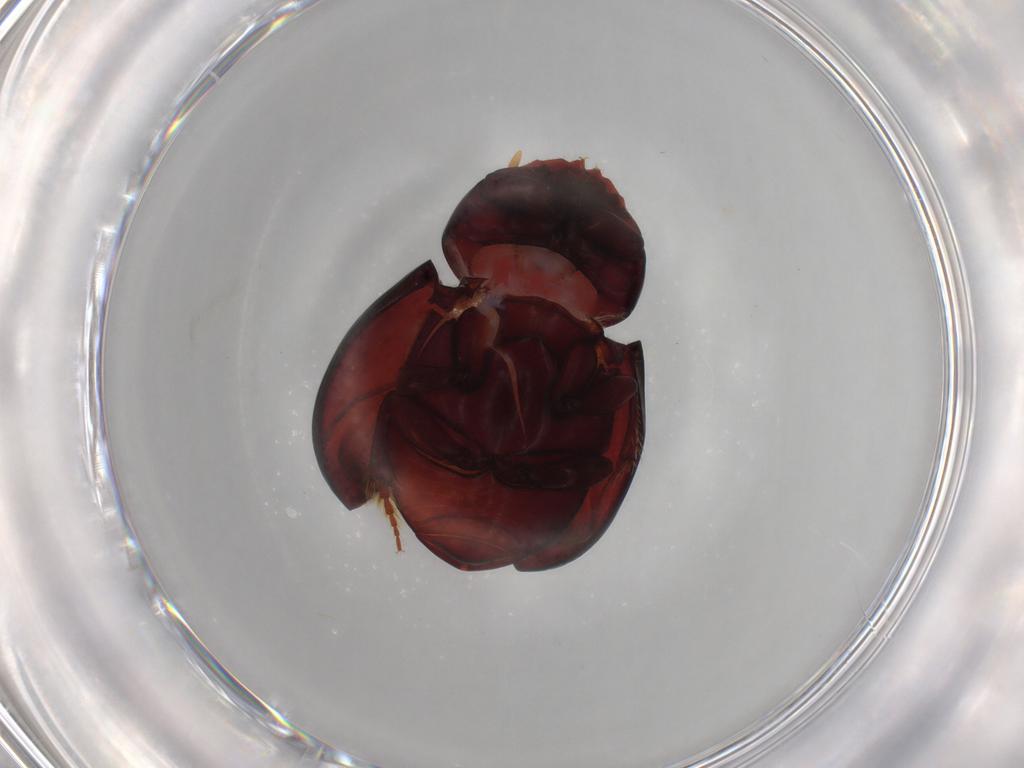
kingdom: Animalia
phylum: Arthropoda
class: Insecta
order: Coleoptera
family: Scarabaeidae
